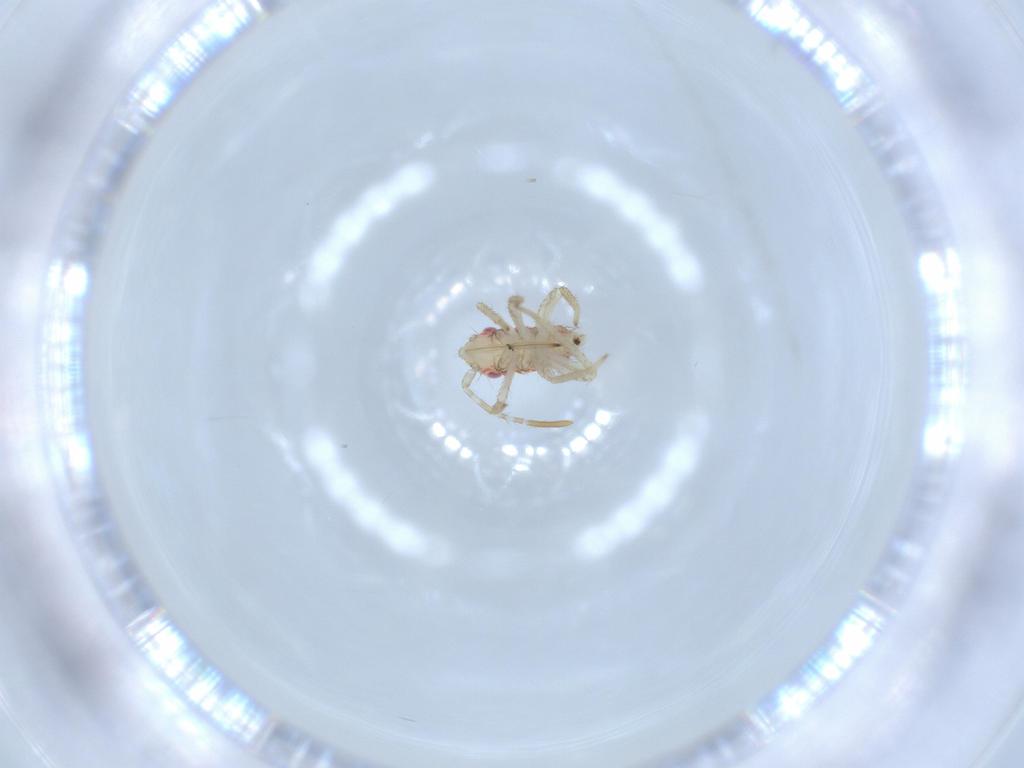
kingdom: Animalia
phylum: Arthropoda
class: Insecta
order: Hemiptera
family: Miridae
